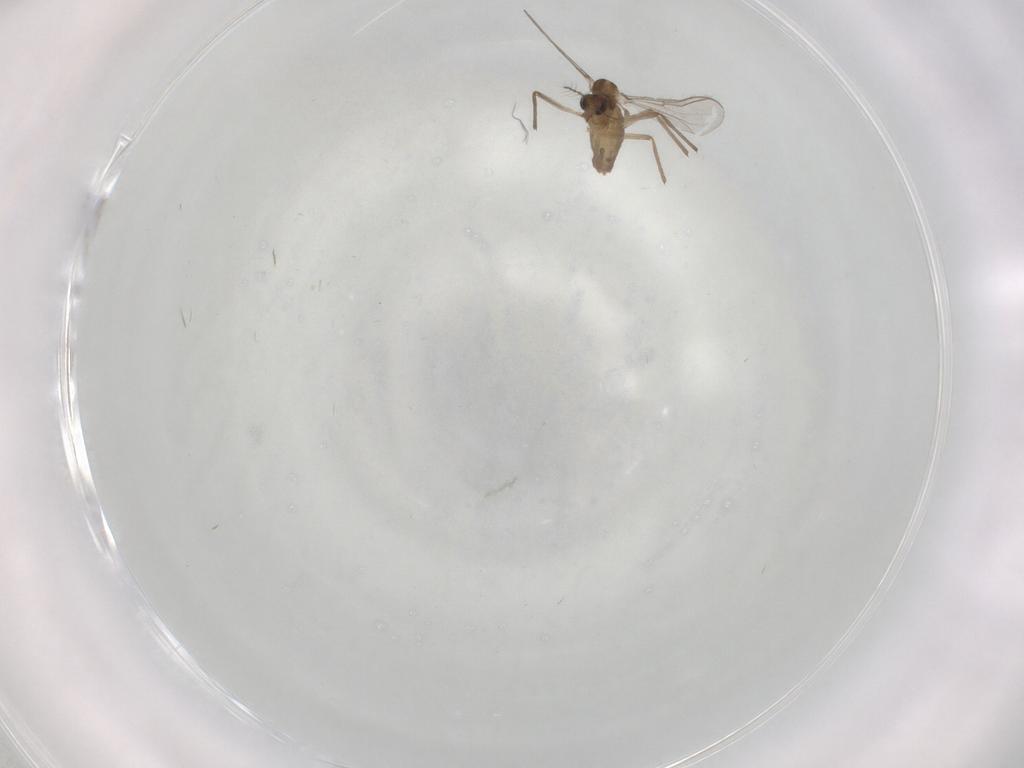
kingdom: Animalia
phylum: Arthropoda
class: Insecta
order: Diptera
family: Chironomidae
